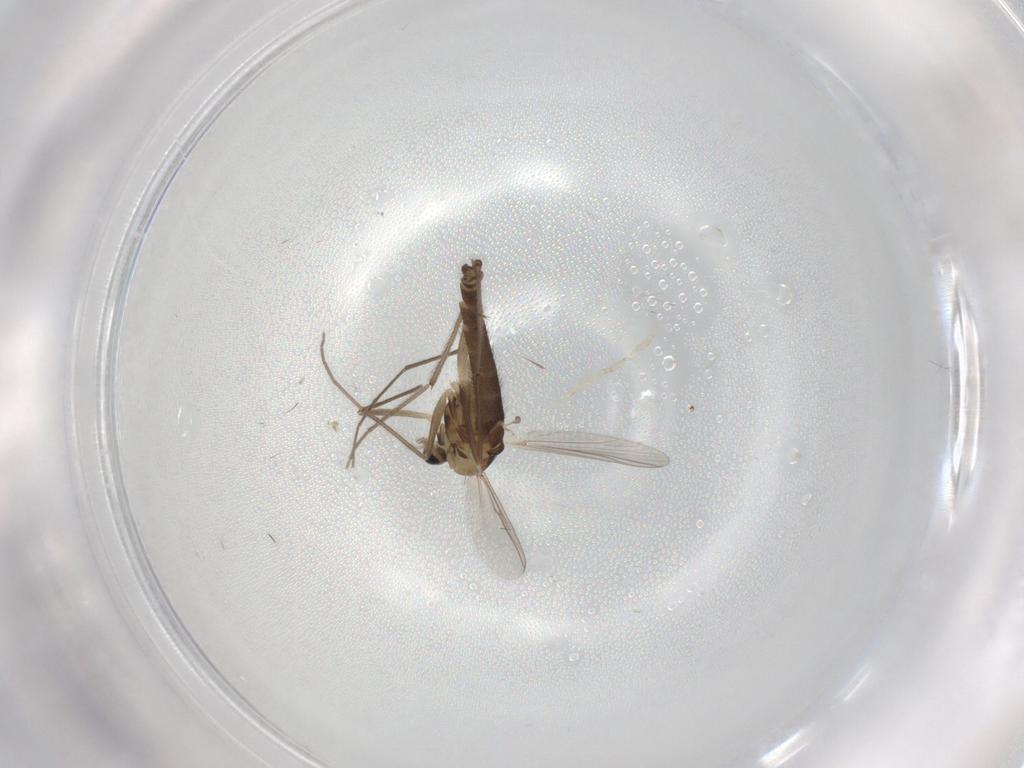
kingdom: Animalia
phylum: Arthropoda
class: Insecta
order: Diptera
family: Chironomidae
